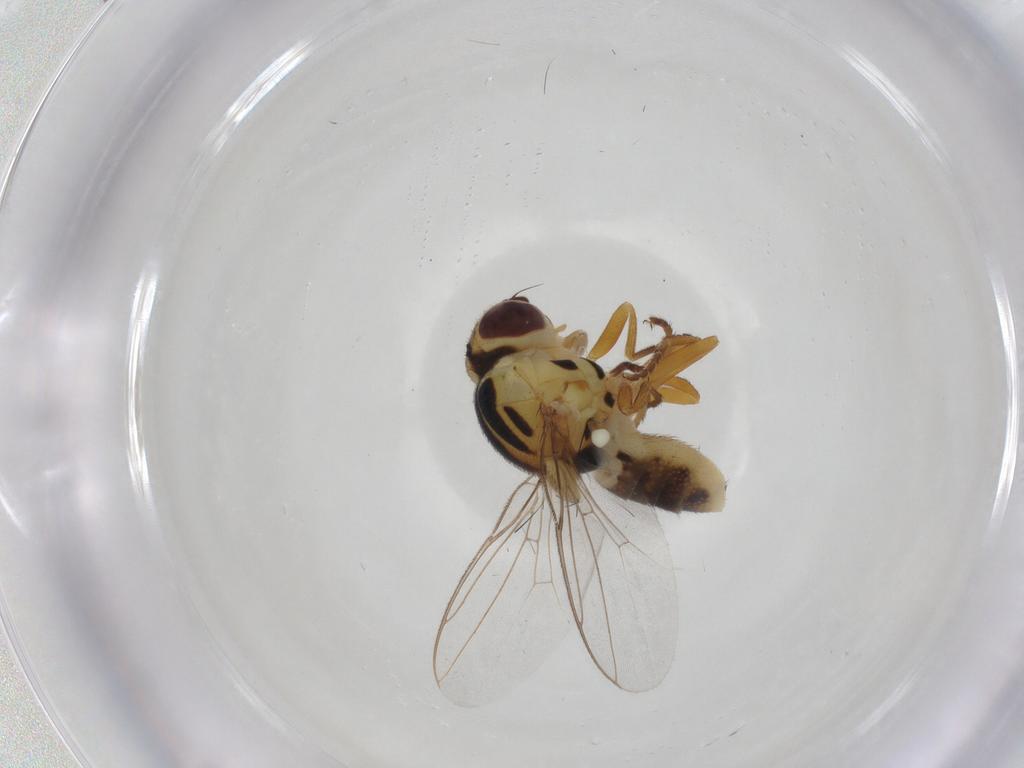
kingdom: Animalia
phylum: Arthropoda
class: Insecta
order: Diptera
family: Chloropidae
